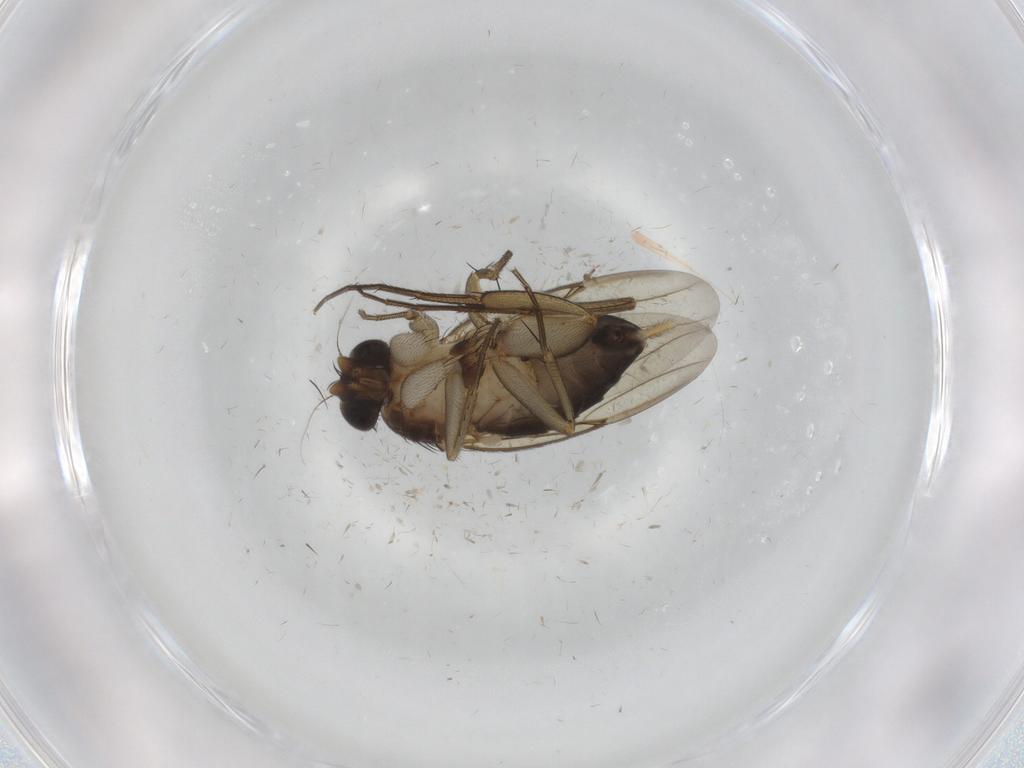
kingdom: Animalia
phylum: Arthropoda
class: Insecta
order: Diptera
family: Phoridae
